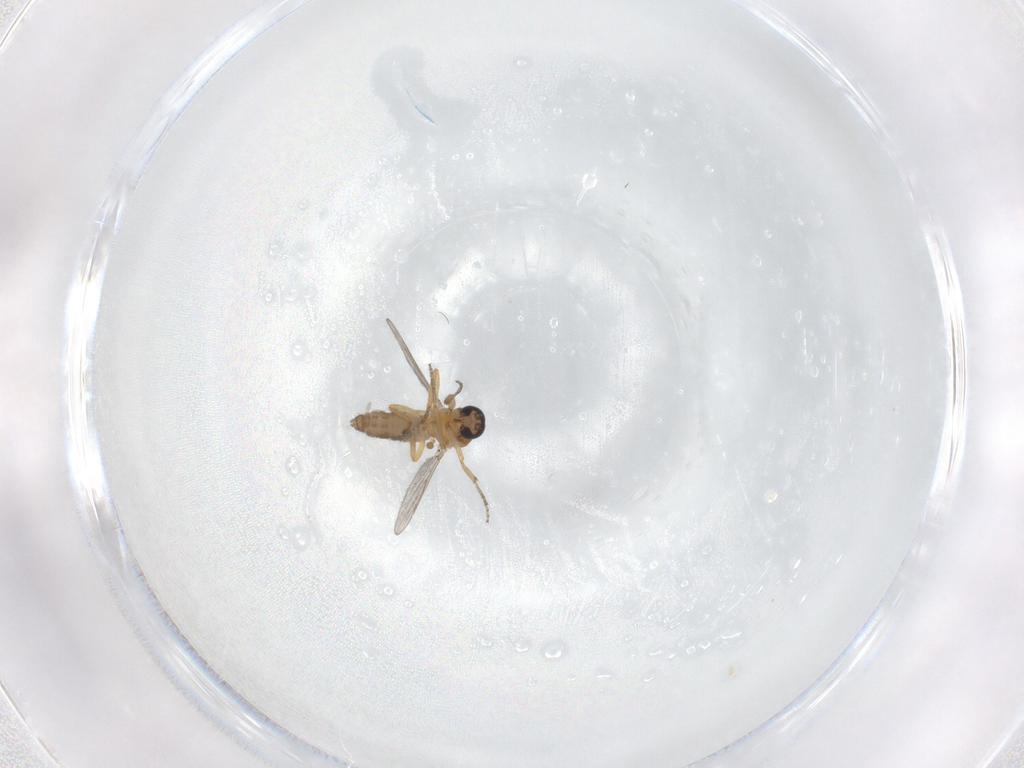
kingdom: Animalia
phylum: Arthropoda
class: Insecta
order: Diptera
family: Ceratopogonidae
